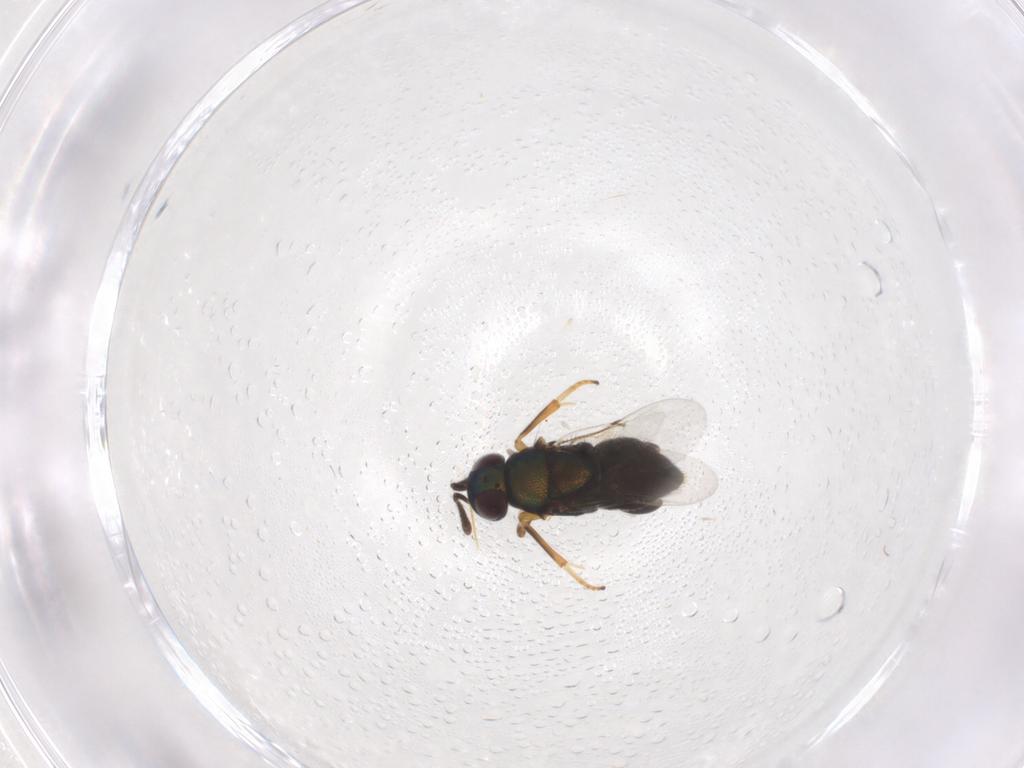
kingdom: Animalia
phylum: Arthropoda
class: Insecta
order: Hymenoptera
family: Encyrtidae
